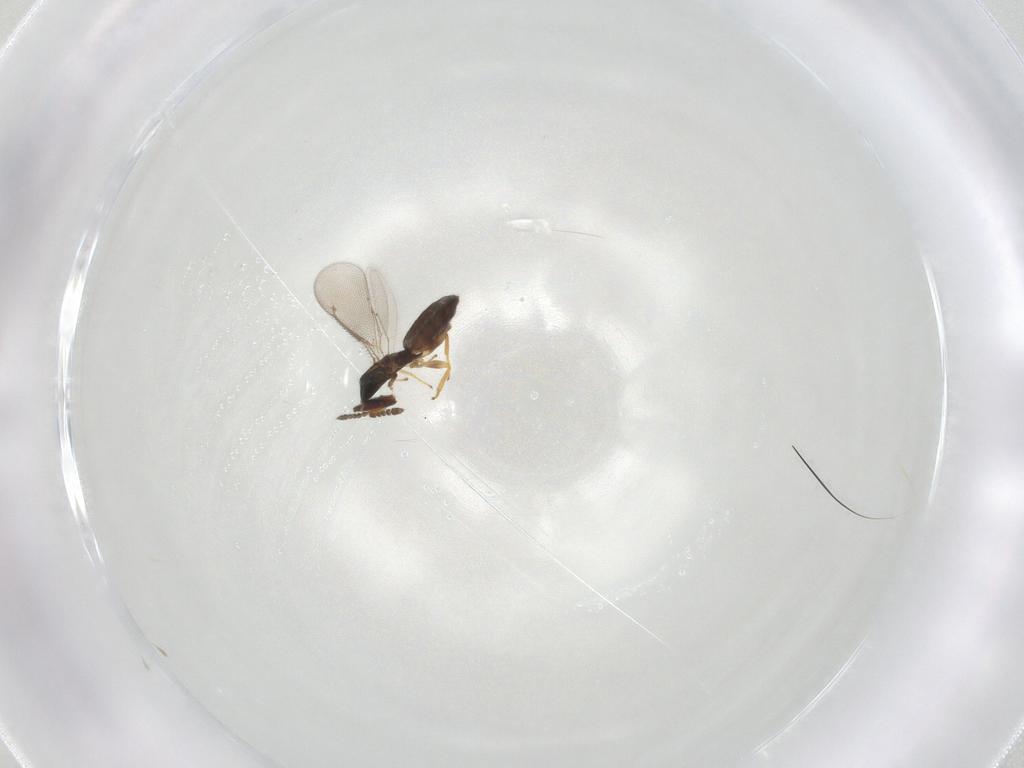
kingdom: Animalia
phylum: Arthropoda
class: Insecta
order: Hymenoptera
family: Eulophidae
